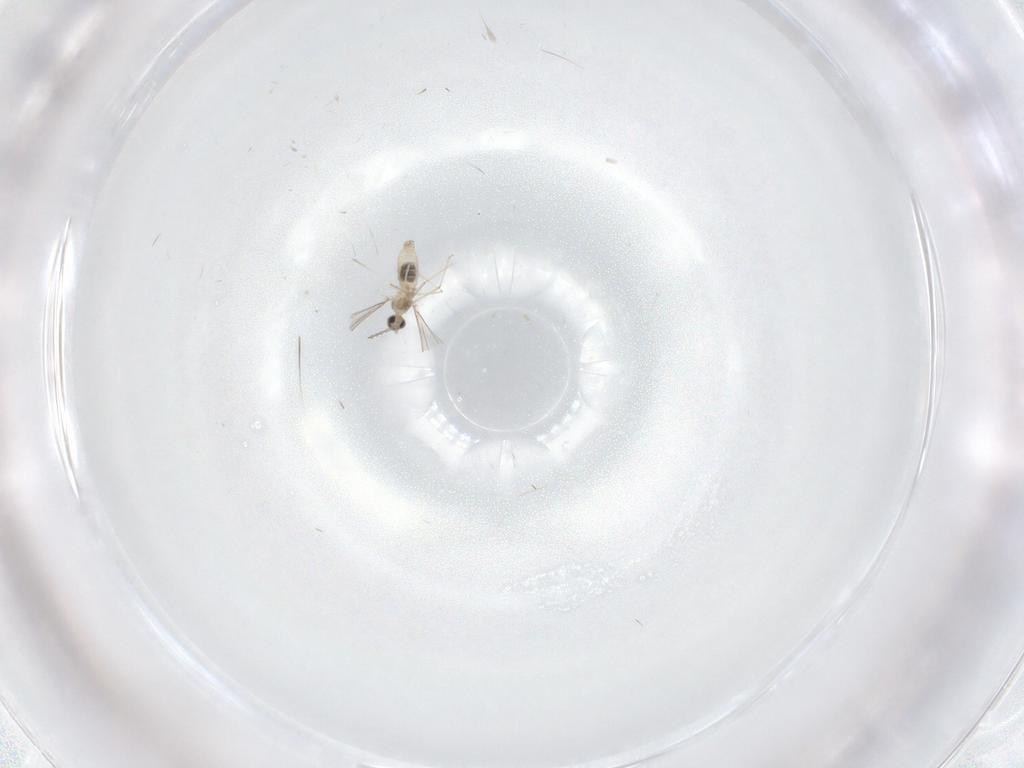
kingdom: Animalia
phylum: Arthropoda
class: Insecta
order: Diptera
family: Cecidomyiidae
